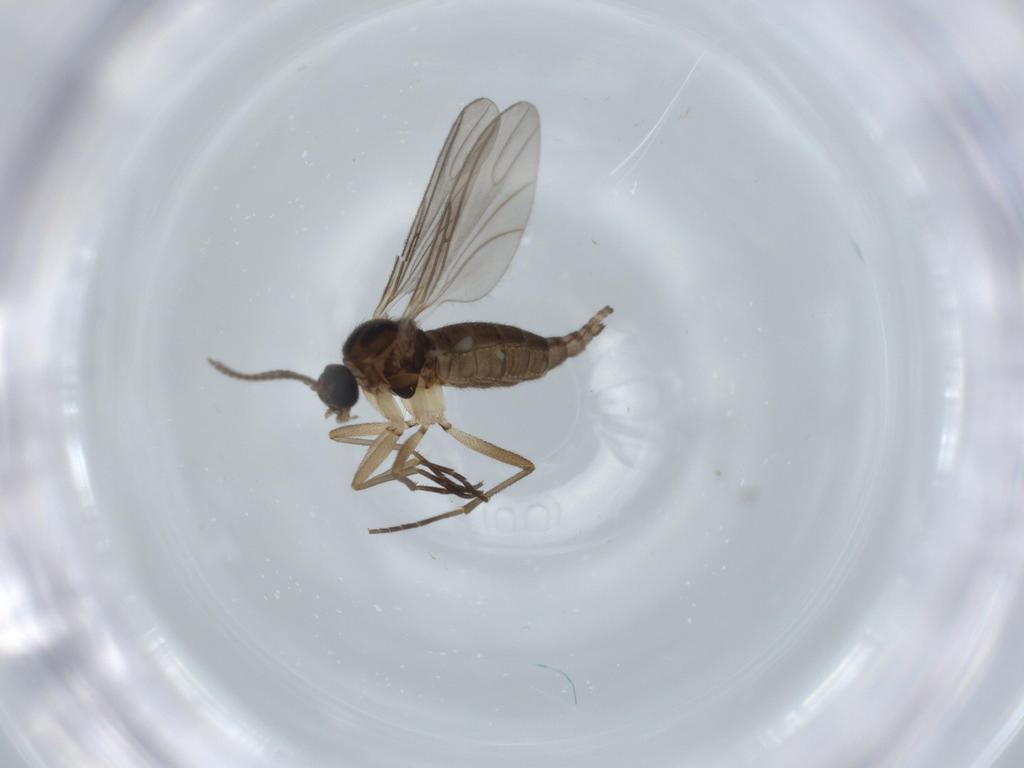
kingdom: Animalia
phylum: Arthropoda
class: Insecta
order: Diptera
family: Sciaridae
